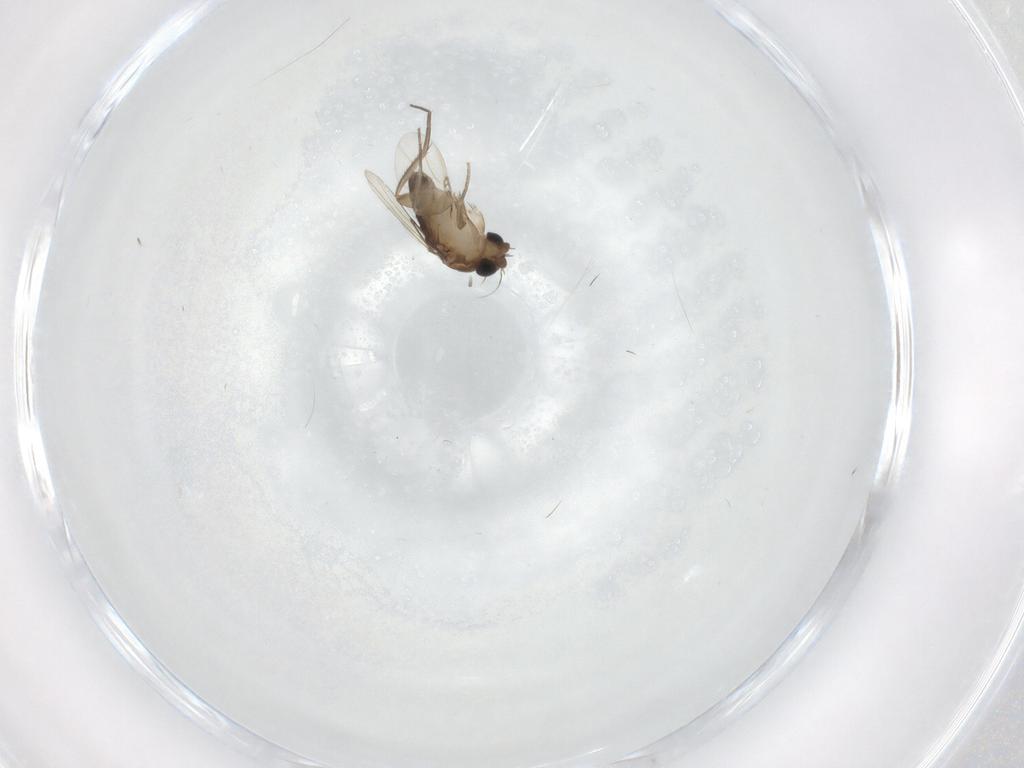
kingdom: Animalia
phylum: Arthropoda
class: Insecta
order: Diptera
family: Phoridae
